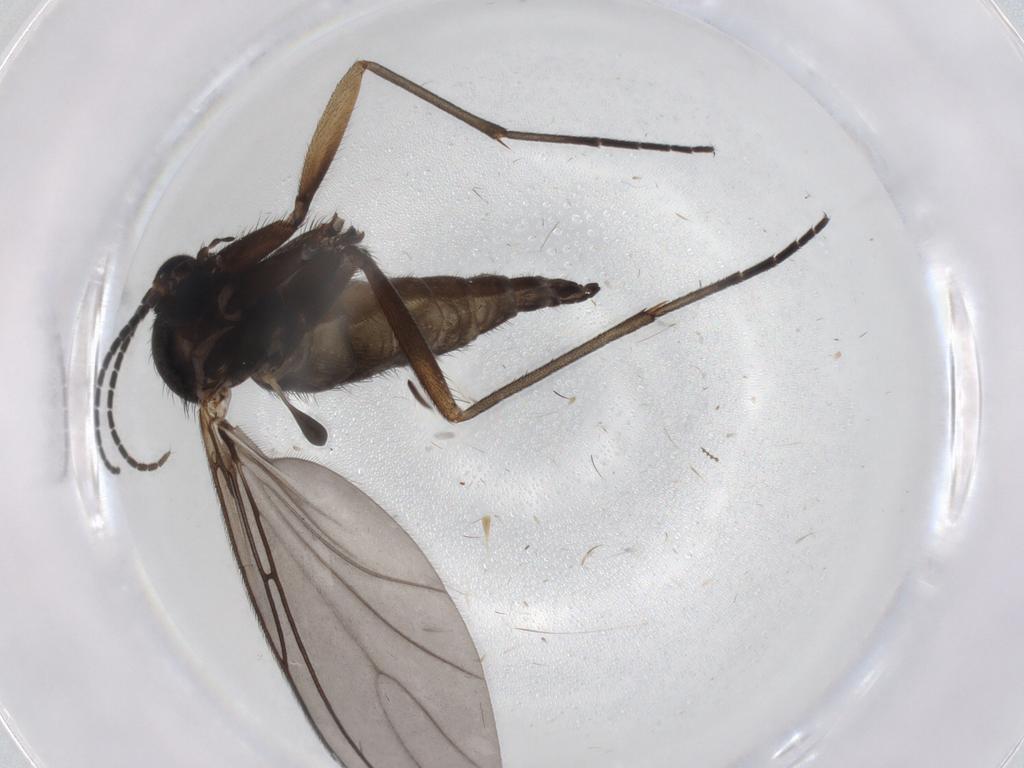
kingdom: Animalia
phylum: Arthropoda
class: Insecta
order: Diptera
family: Sciaridae
